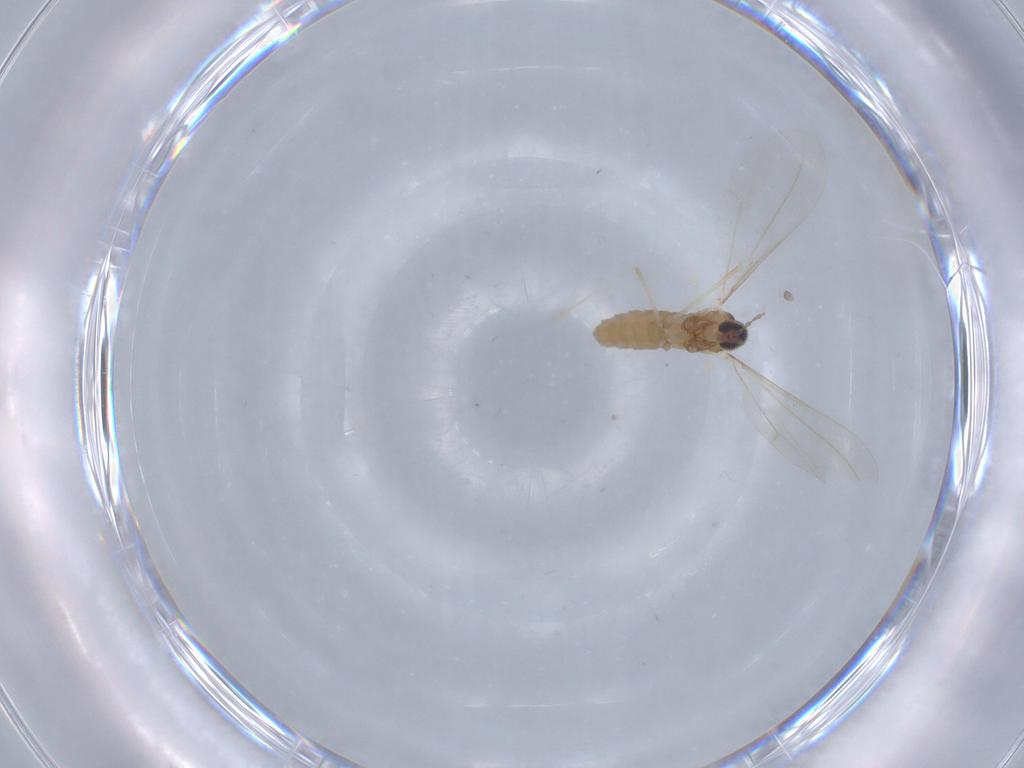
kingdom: Animalia
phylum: Arthropoda
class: Insecta
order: Diptera
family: Cecidomyiidae
